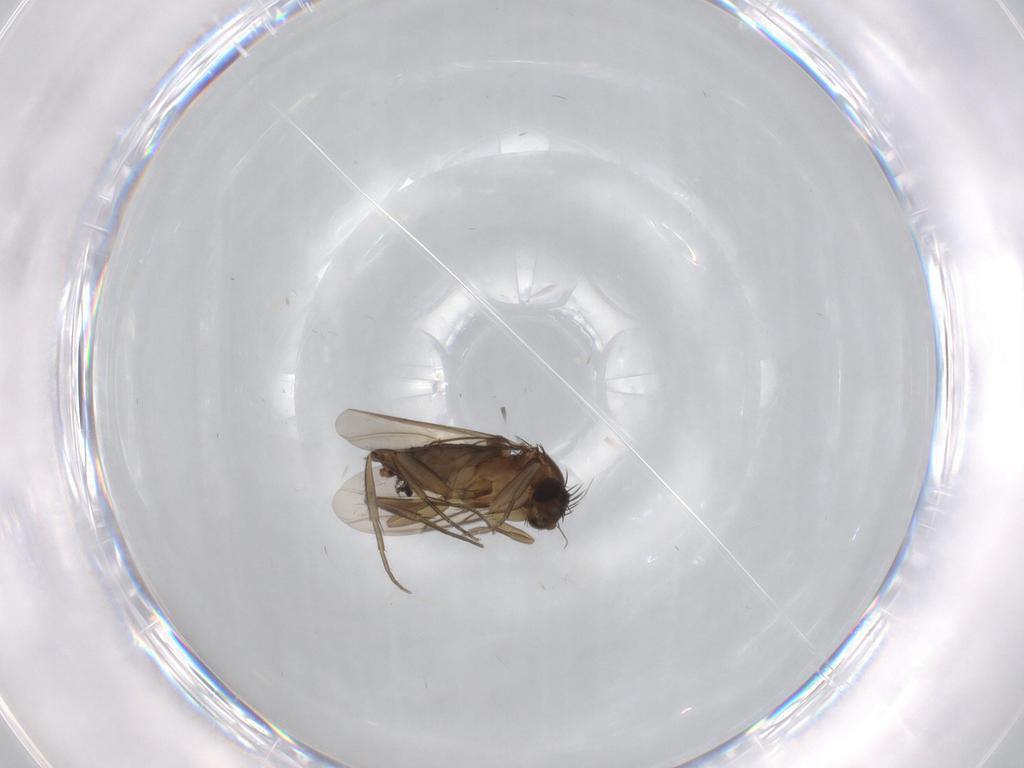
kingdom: Animalia
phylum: Arthropoda
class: Insecta
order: Diptera
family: Phoridae
